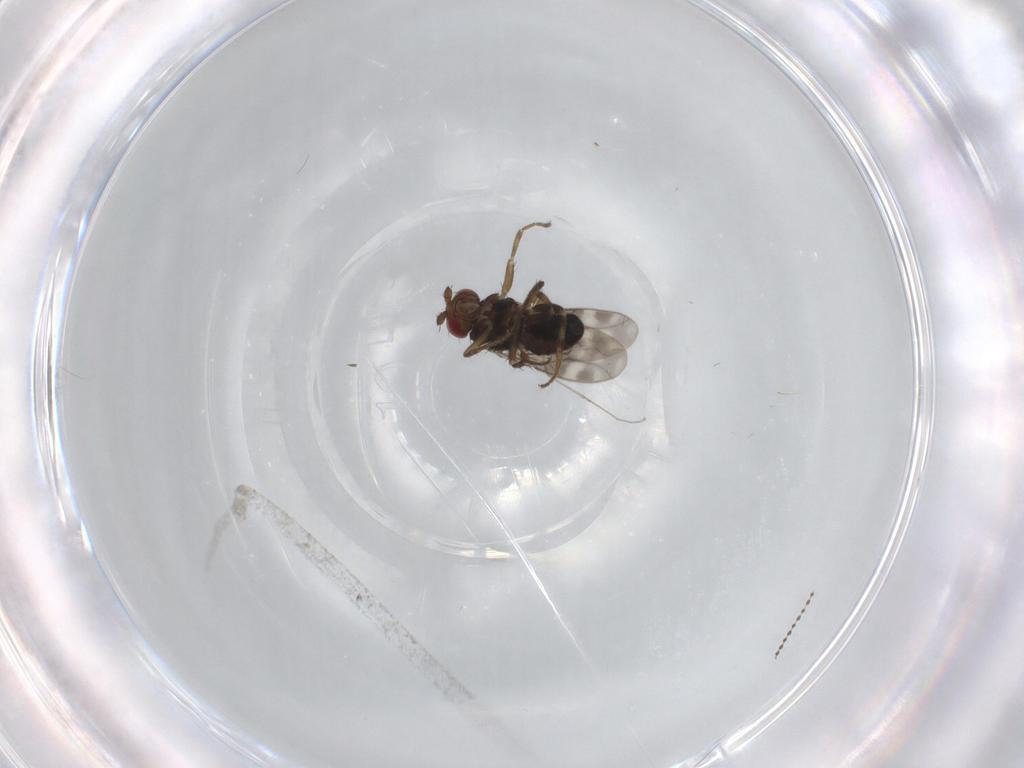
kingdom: Animalia
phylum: Arthropoda
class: Insecta
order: Diptera
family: Sphaeroceridae
